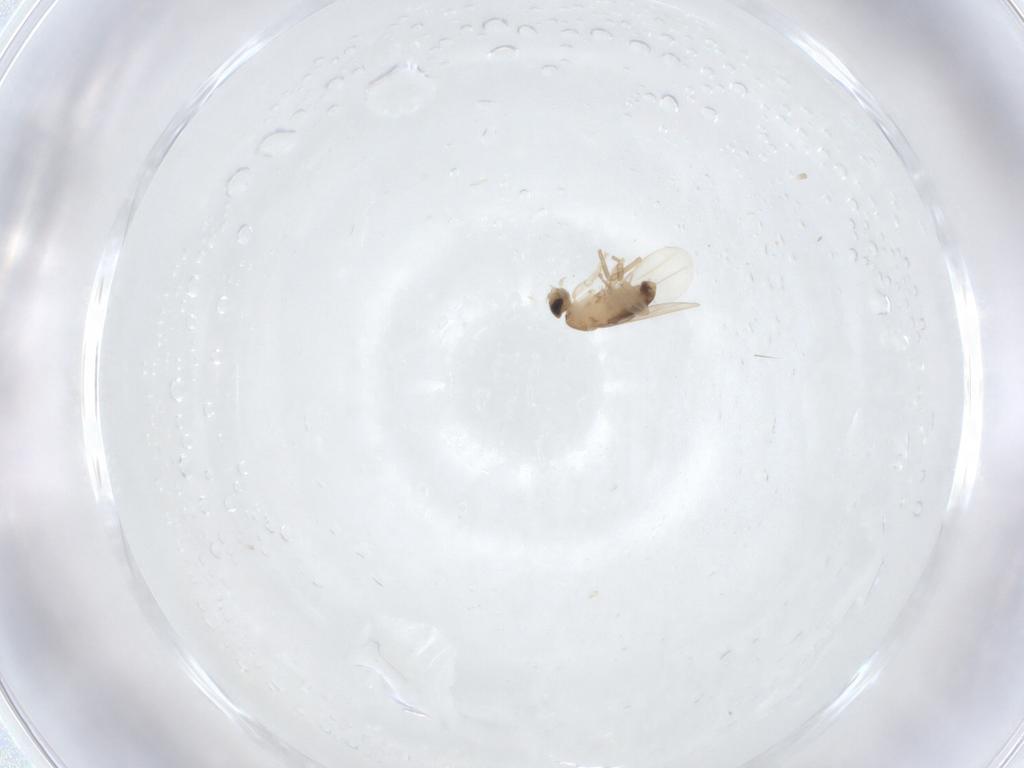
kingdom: Animalia
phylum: Arthropoda
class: Insecta
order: Diptera
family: Phoridae
